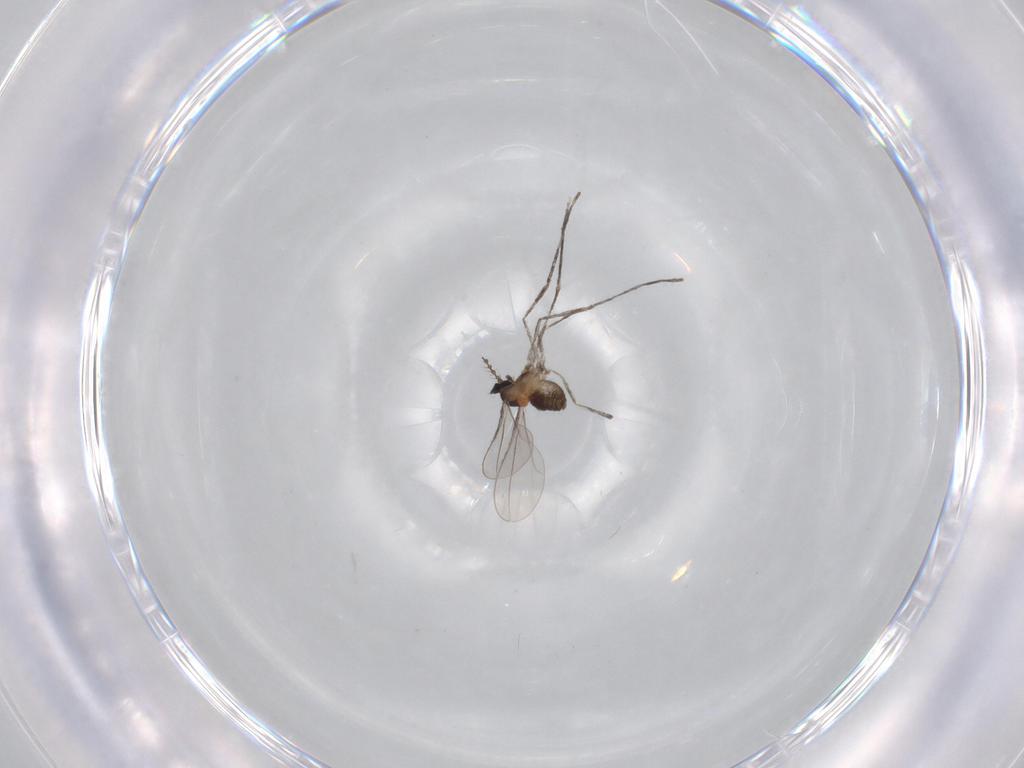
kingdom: Animalia
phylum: Arthropoda
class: Insecta
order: Diptera
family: Cecidomyiidae
